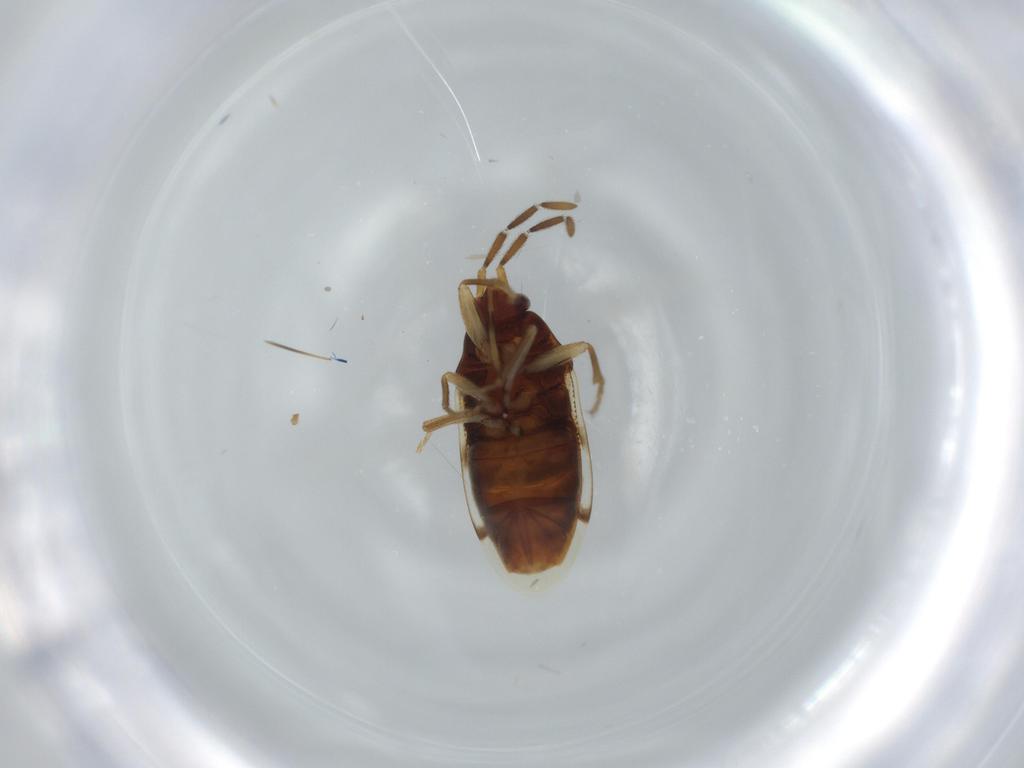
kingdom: Animalia
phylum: Arthropoda
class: Insecta
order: Hemiptera
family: Rhyparochromidae
